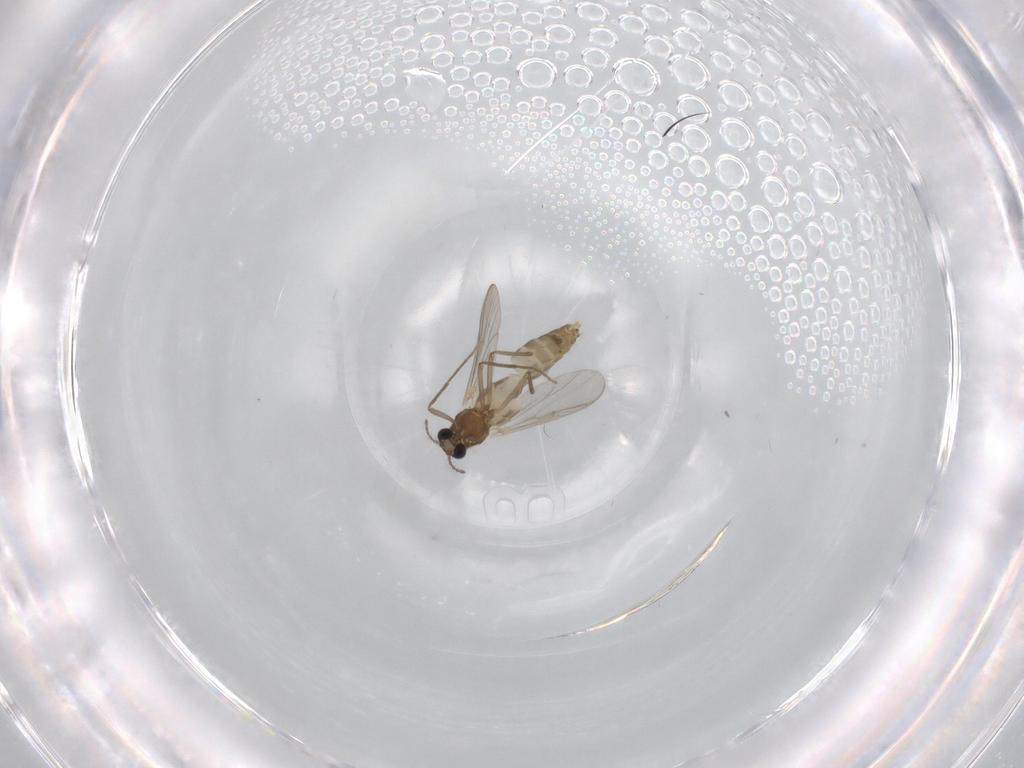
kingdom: Animalia
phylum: Arthropoda
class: Insecta
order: Diptera
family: Chironomidae
